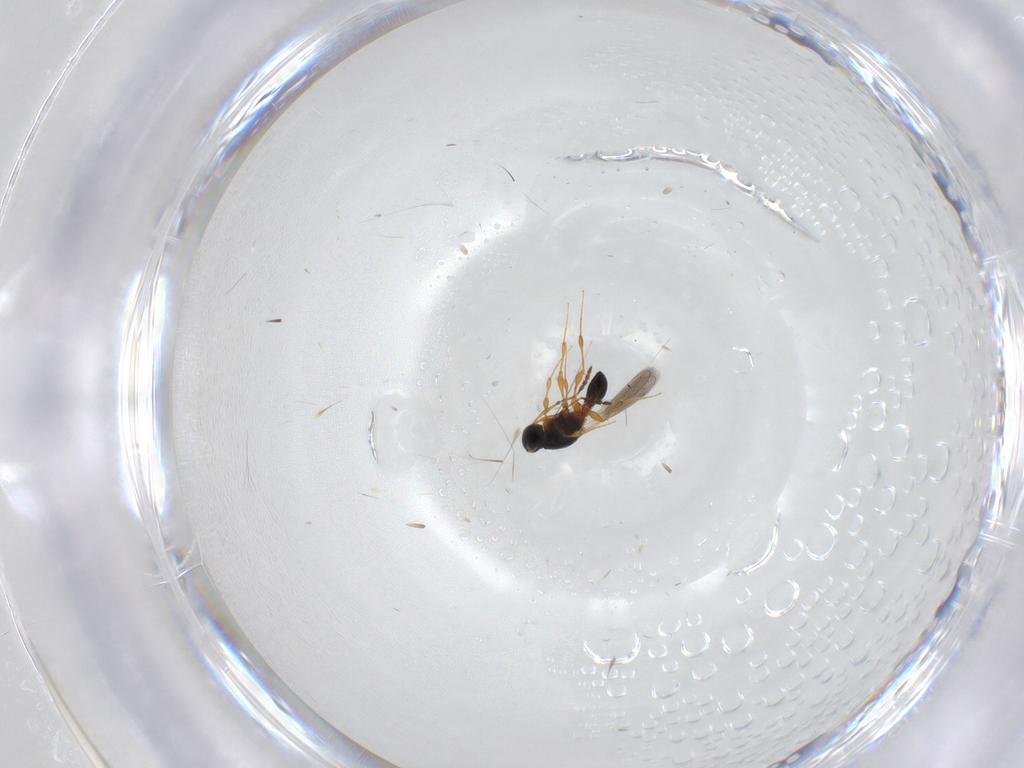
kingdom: Animalia
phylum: Arthropoda
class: Insecta
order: Hymenoptera
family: Platygastridae
